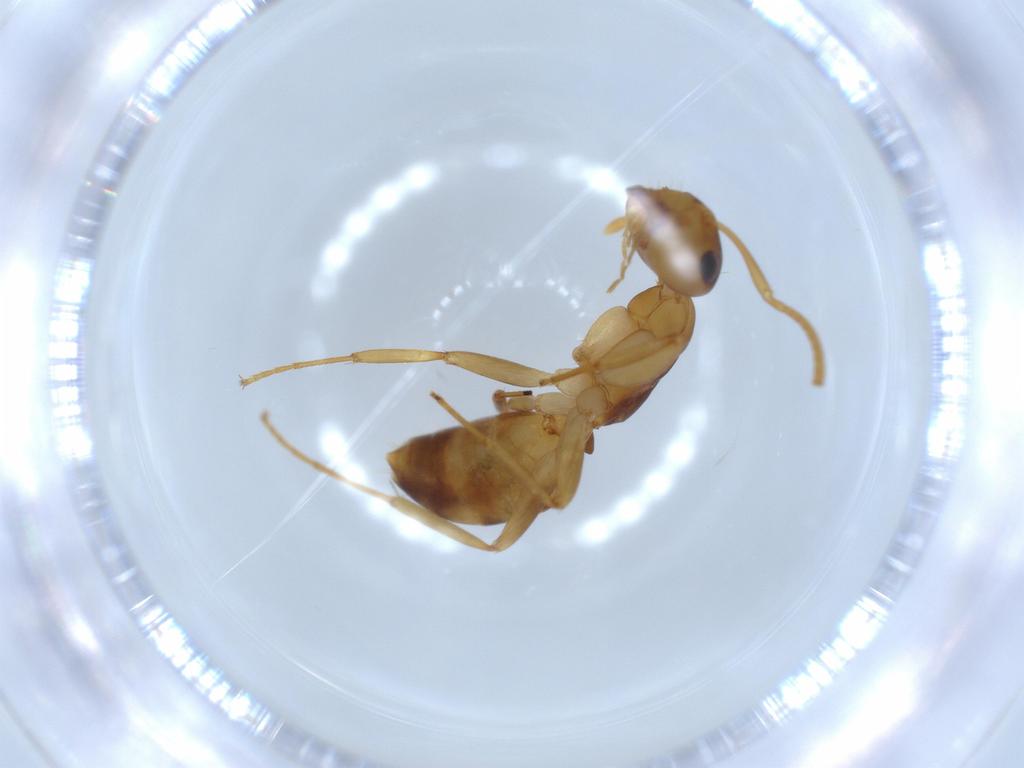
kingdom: Animalia
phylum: Arthropoda
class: Insecta
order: Hymenoptera
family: Formicidae
